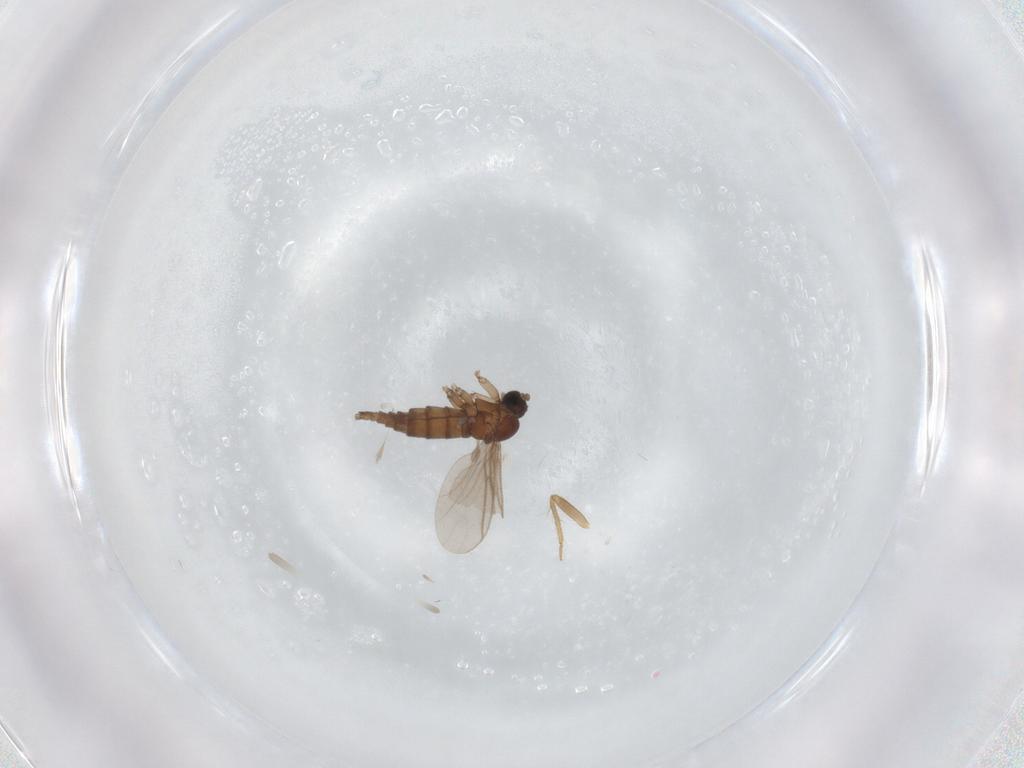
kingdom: Animalia
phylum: Arthropoda
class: Insecta
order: Diptera
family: Sciaridae
